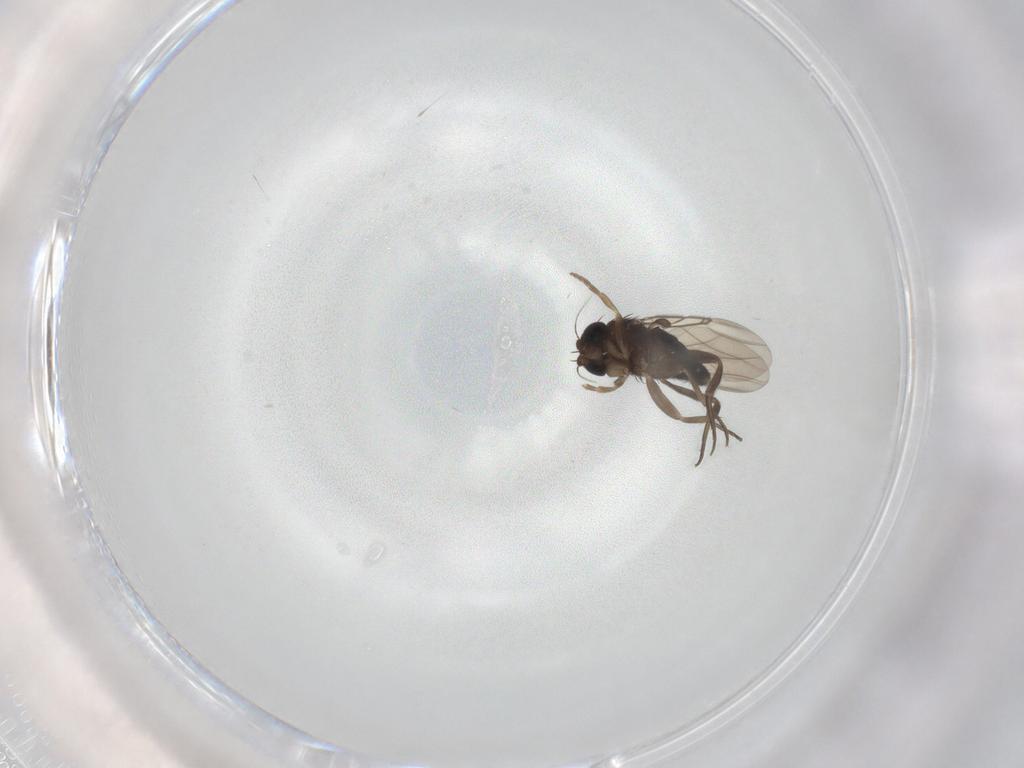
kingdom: Animalia
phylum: Arthropoda
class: Insecta
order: Diptera
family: Phoridae
